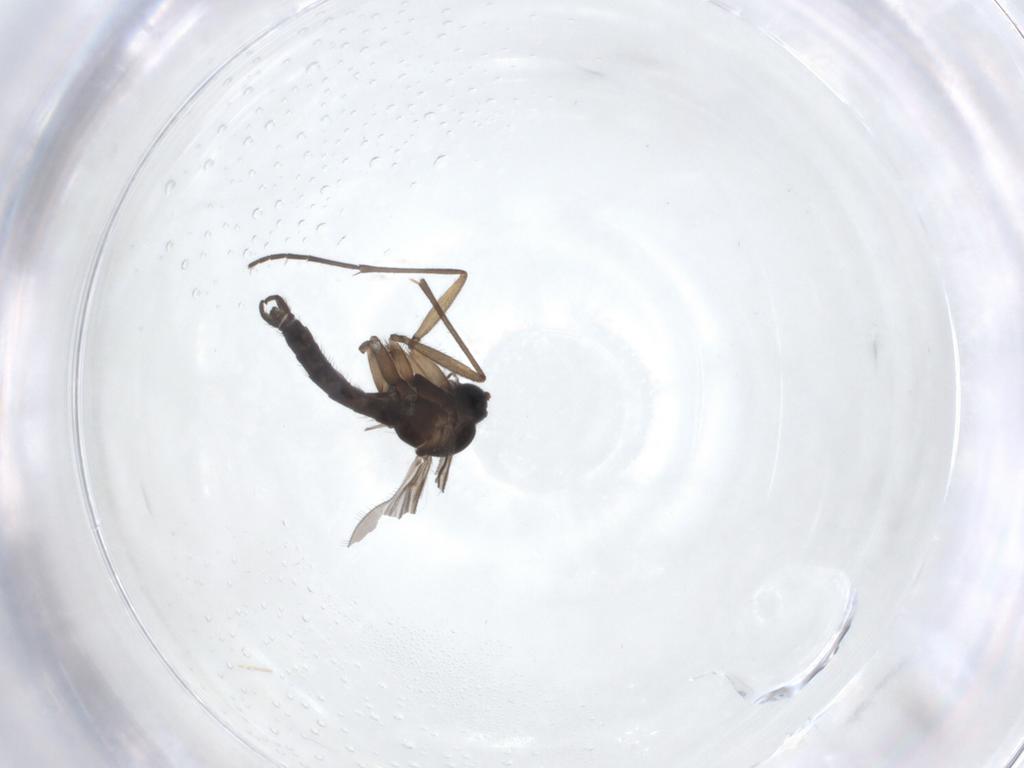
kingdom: Animalia
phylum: Arthropoda
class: Insecta
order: Diptera
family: Sciaridae
